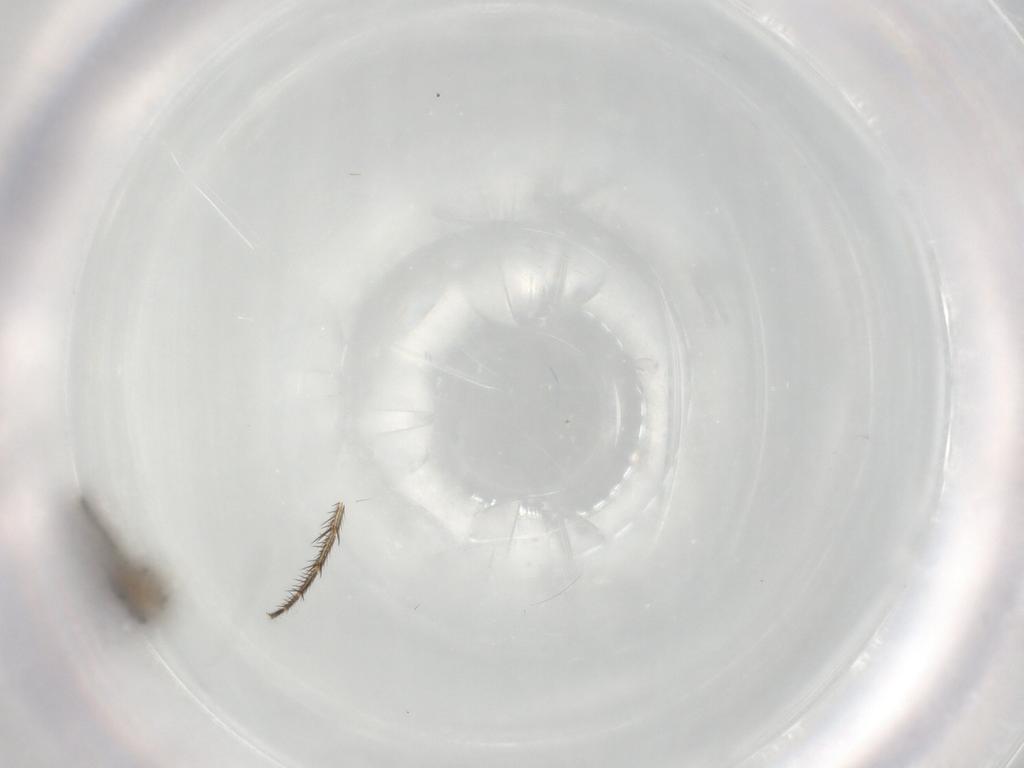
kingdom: Animalia
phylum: Arthropoda
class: Insecta
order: Diptera
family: Mycetophilidae
